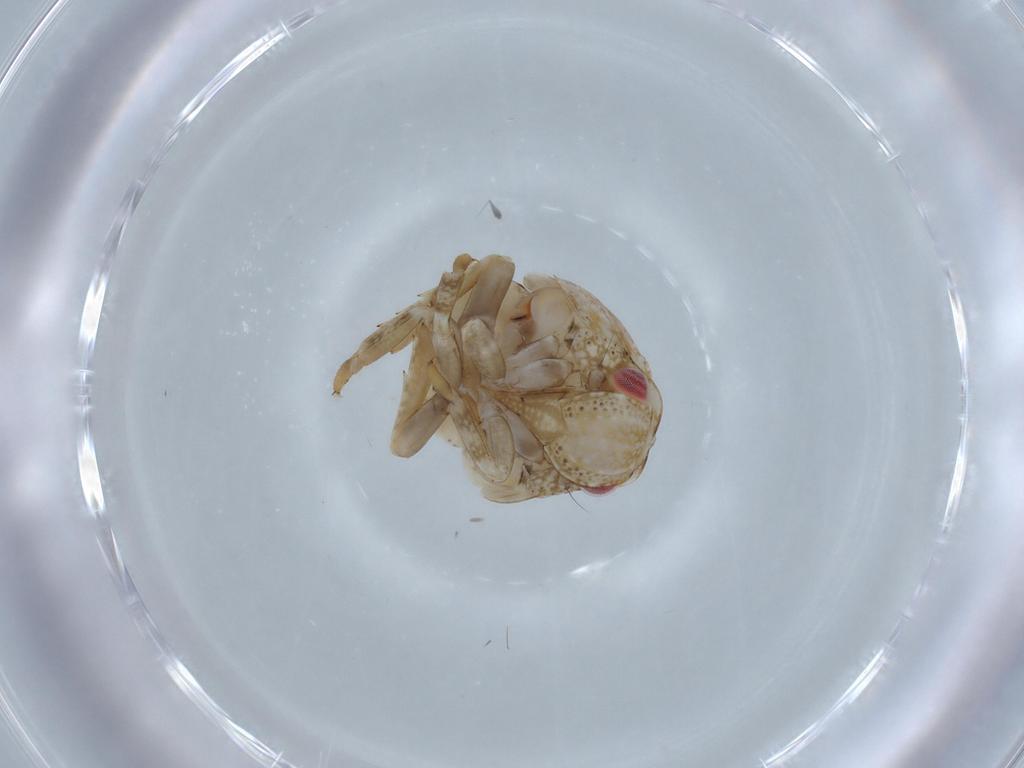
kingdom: Animalia
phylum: Arthropoda
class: Insecta
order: Hemiptera
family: Acanaloniidae
